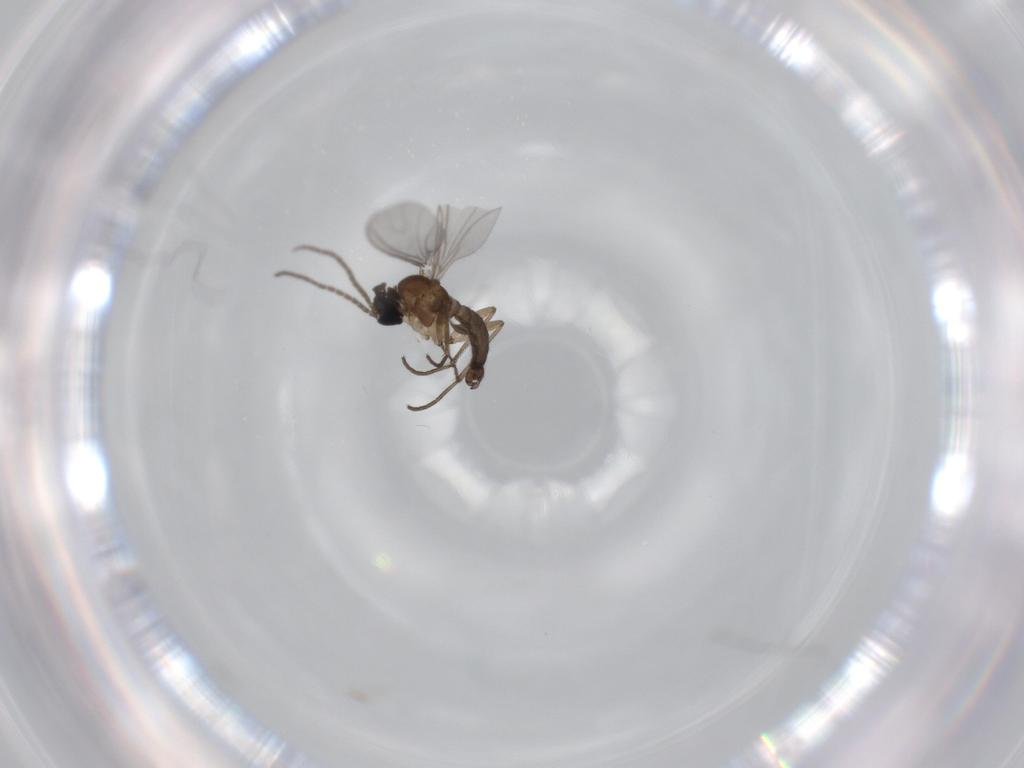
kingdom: Animalia
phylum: Arthropoda
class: Insecta
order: Diptera
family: Sciaridae
